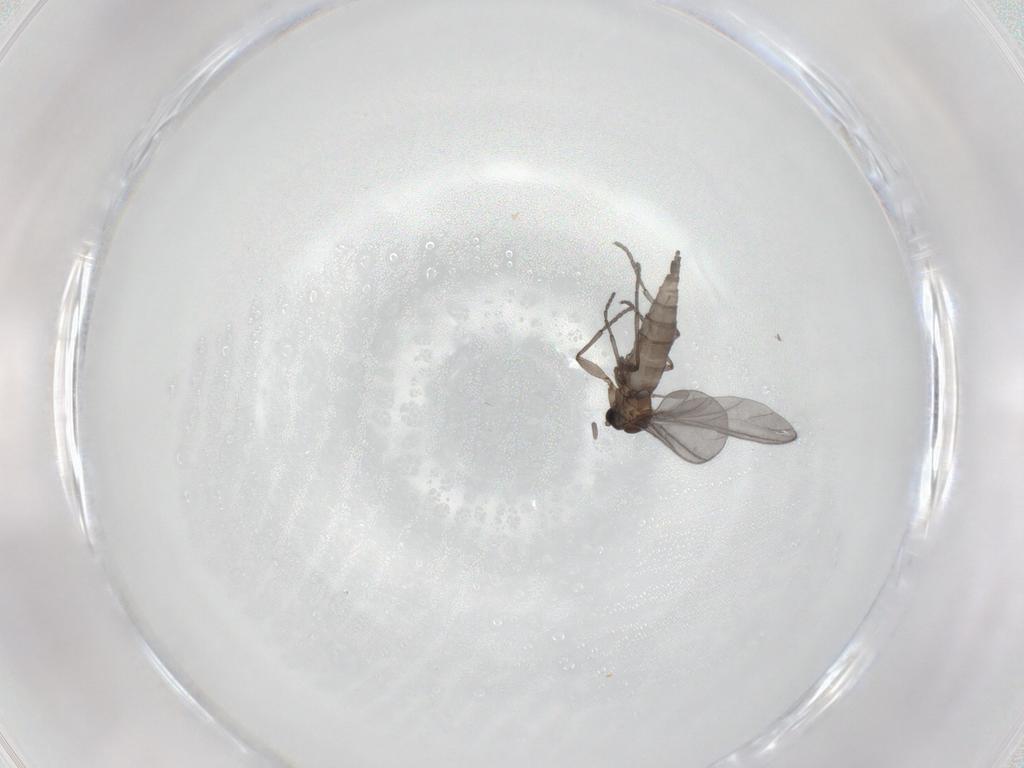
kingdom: Animalia
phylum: Arthropoda
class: Insecta
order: Diptera
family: Sciaridae
